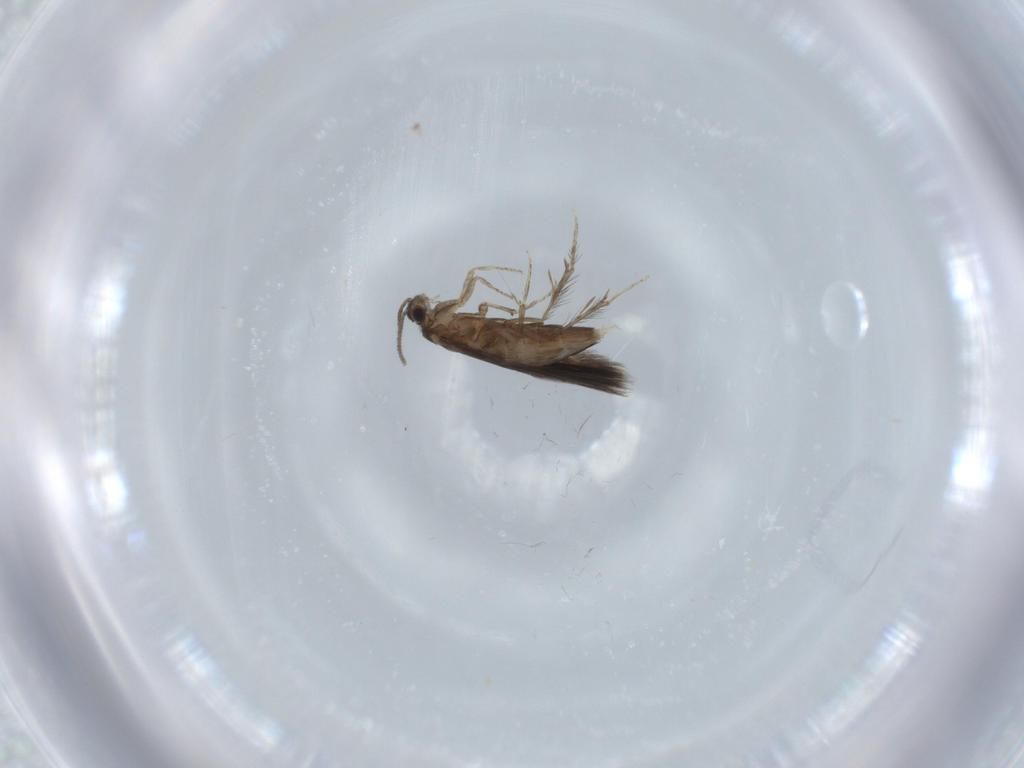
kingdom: Animalia
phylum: Arthropoda
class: Insecta
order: Trichoptera
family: Hydroptilidae
